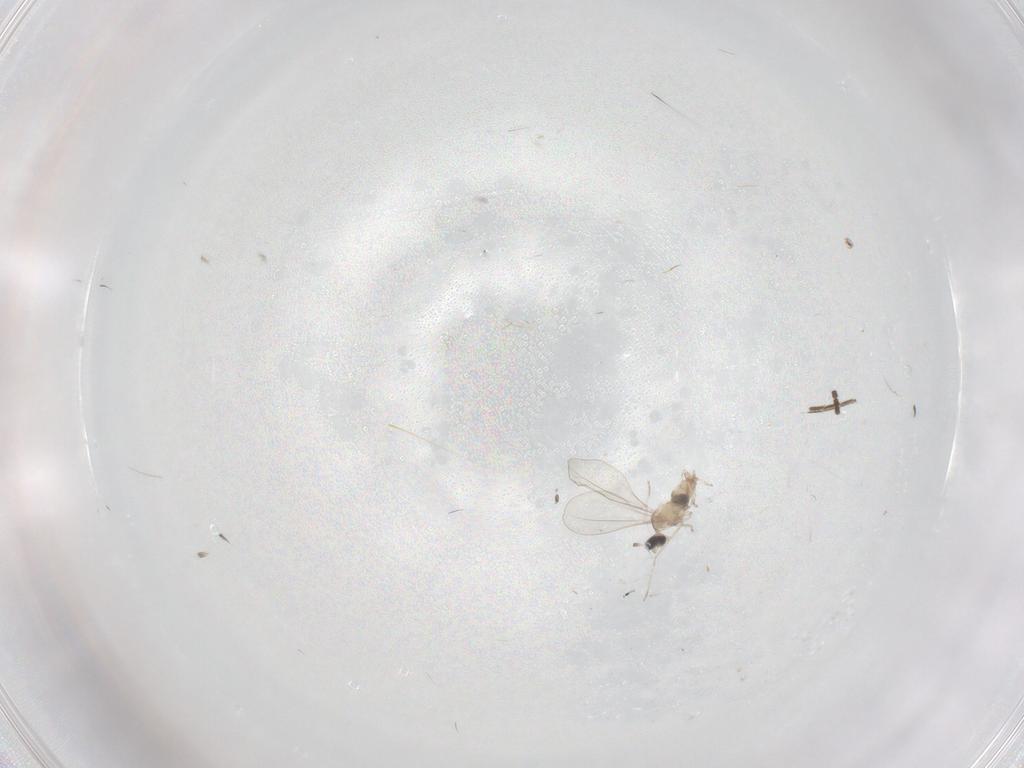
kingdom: Animalia
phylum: Arthropoda
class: Insecta
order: Diptera
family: Cecidomyiidae
